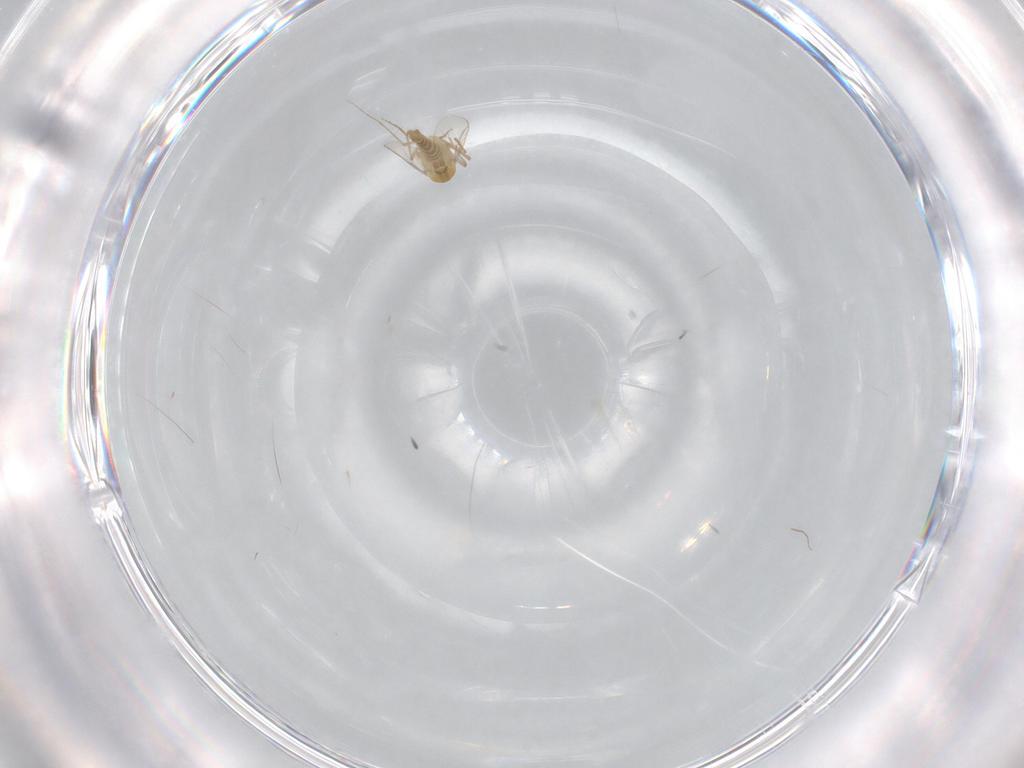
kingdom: Animalia
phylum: Arthropoda
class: Insecta
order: Diptera
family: Chironomidae
